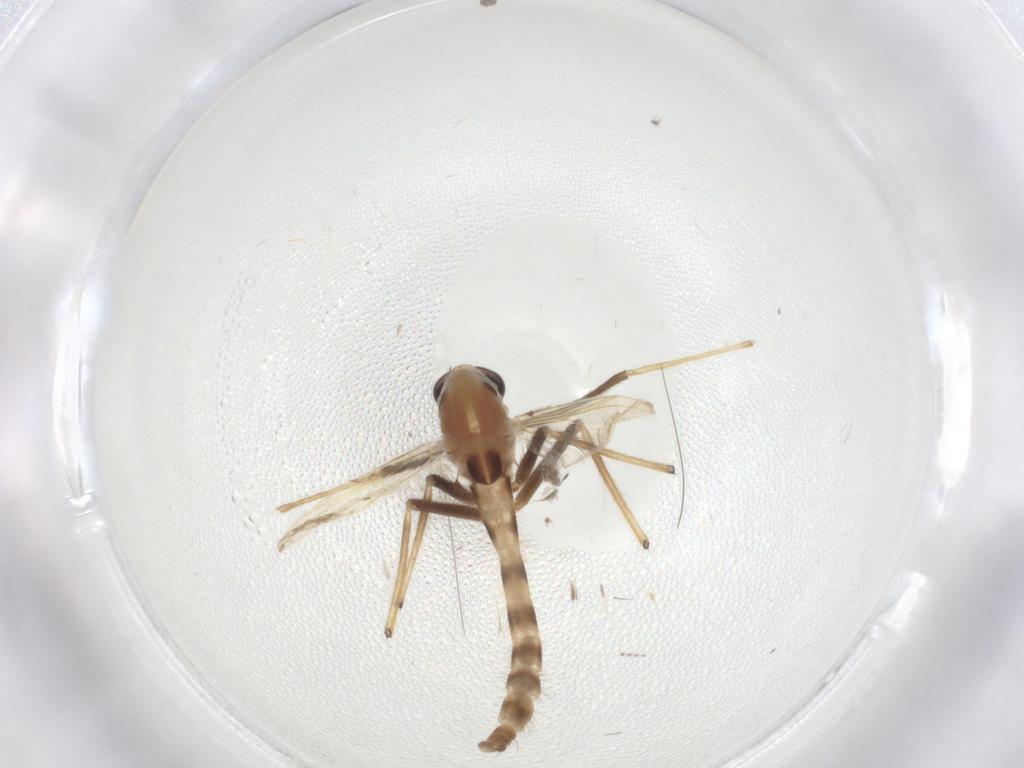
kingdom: Animalia
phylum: Arthropoda
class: Insecta
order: Diptera
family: Chironomidae
